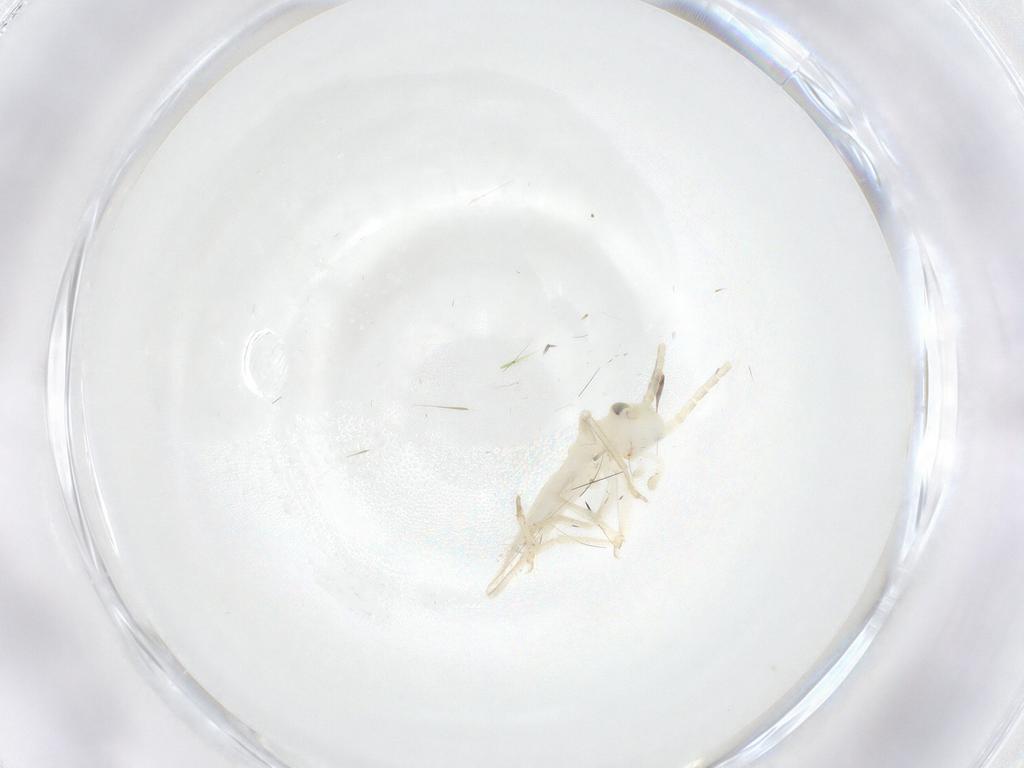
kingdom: Animalia
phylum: Arthropoda
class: Insecta
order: Orthoptera
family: Trigonidiidae
